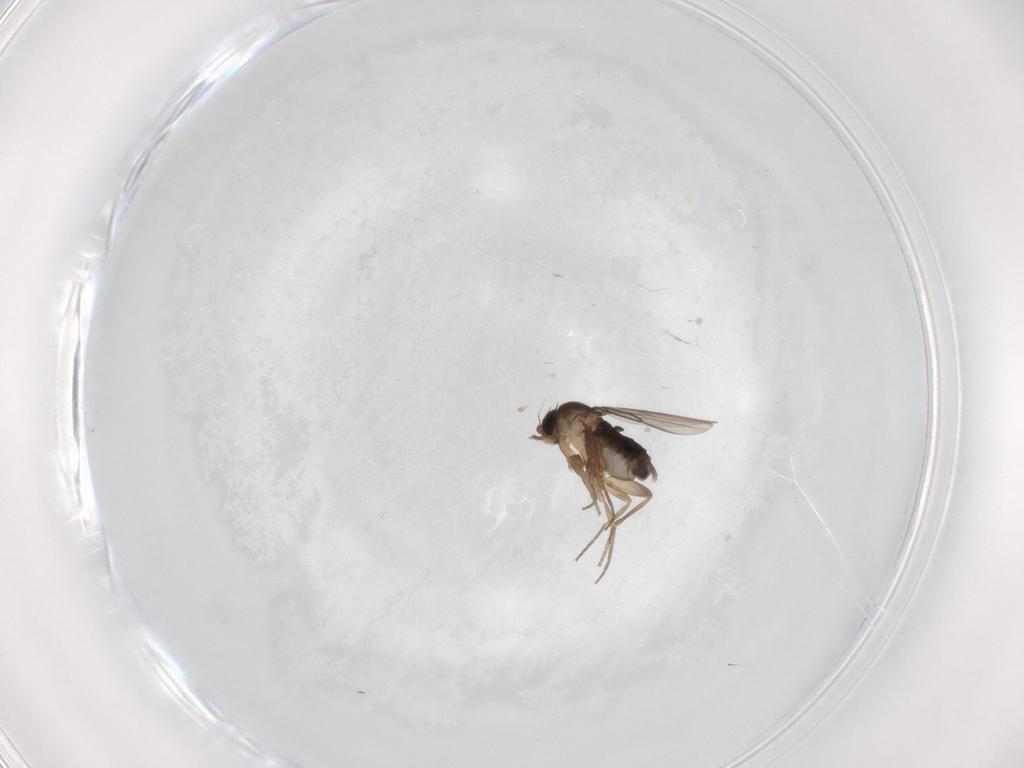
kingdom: Animalia
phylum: Arthropoda
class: Insecta
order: Diptera
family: Phoridae
